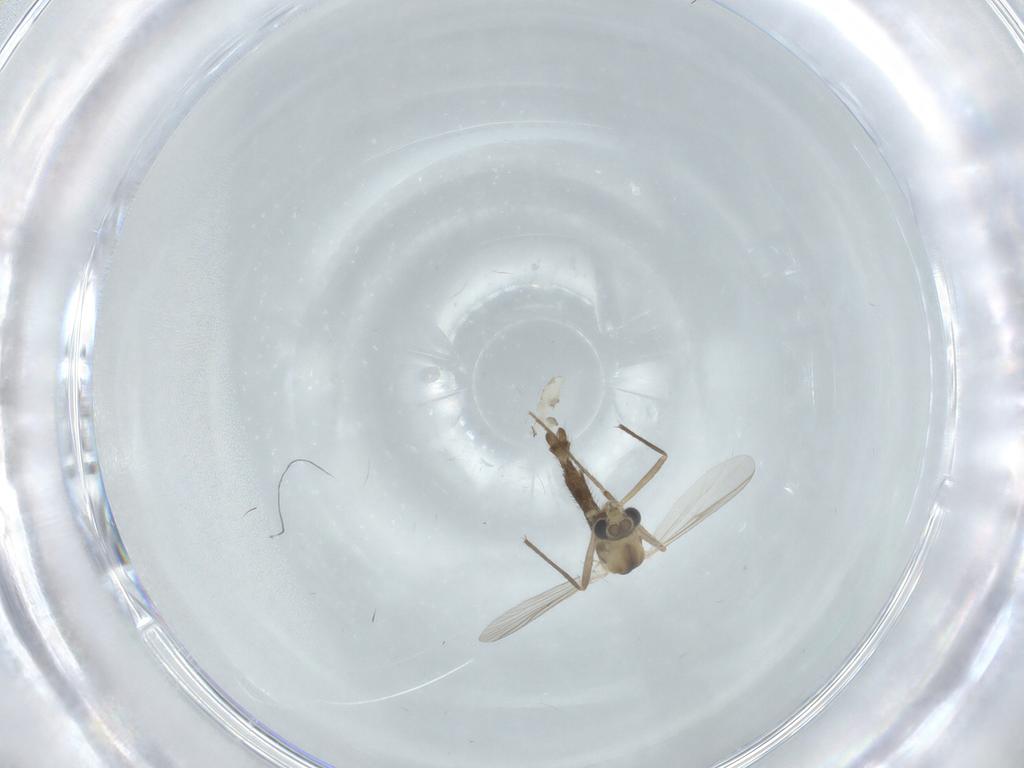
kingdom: Animalia
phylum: Arthropoda
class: Insecta
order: Diptera
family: Chironomidae
